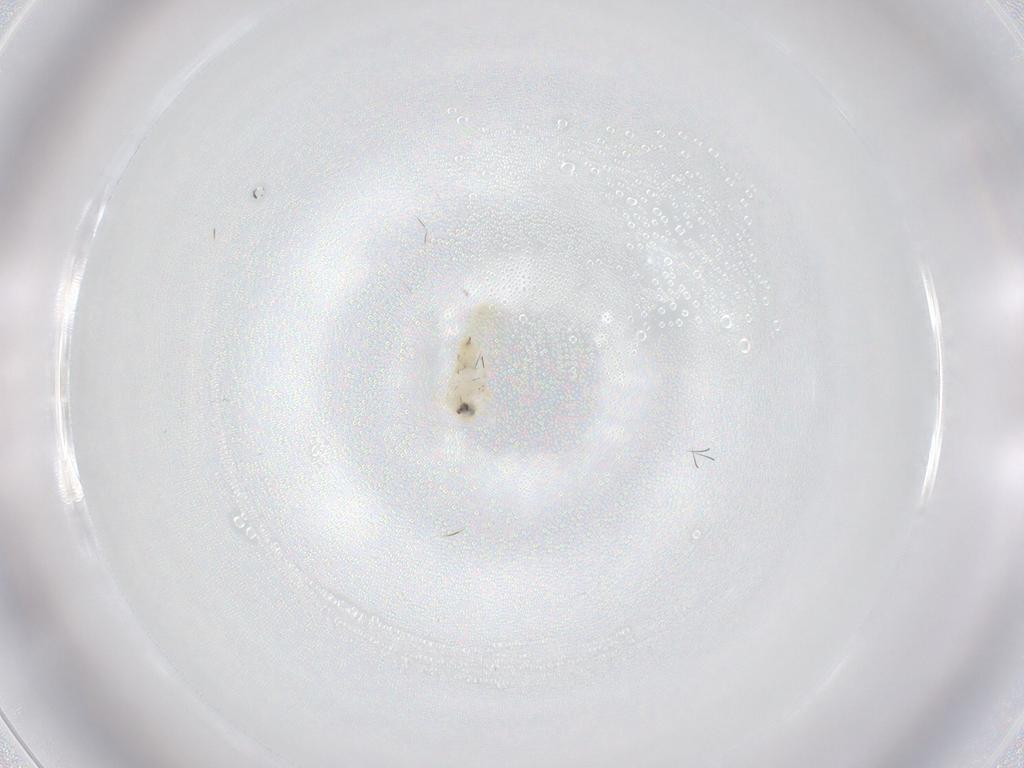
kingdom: Animalia
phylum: Arthropoda
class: Insecta
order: Hemiptera
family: Aleyrodidae
